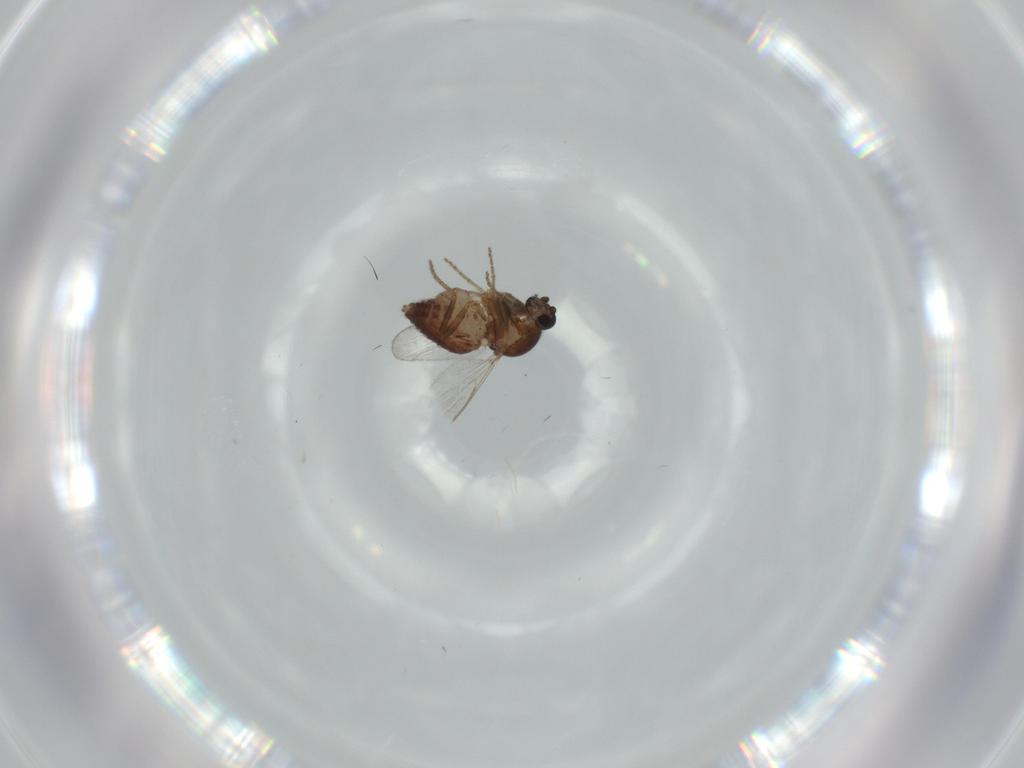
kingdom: Animalia
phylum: Arthropoda
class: Insecta
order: Diptera
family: Ceratopogonidae
